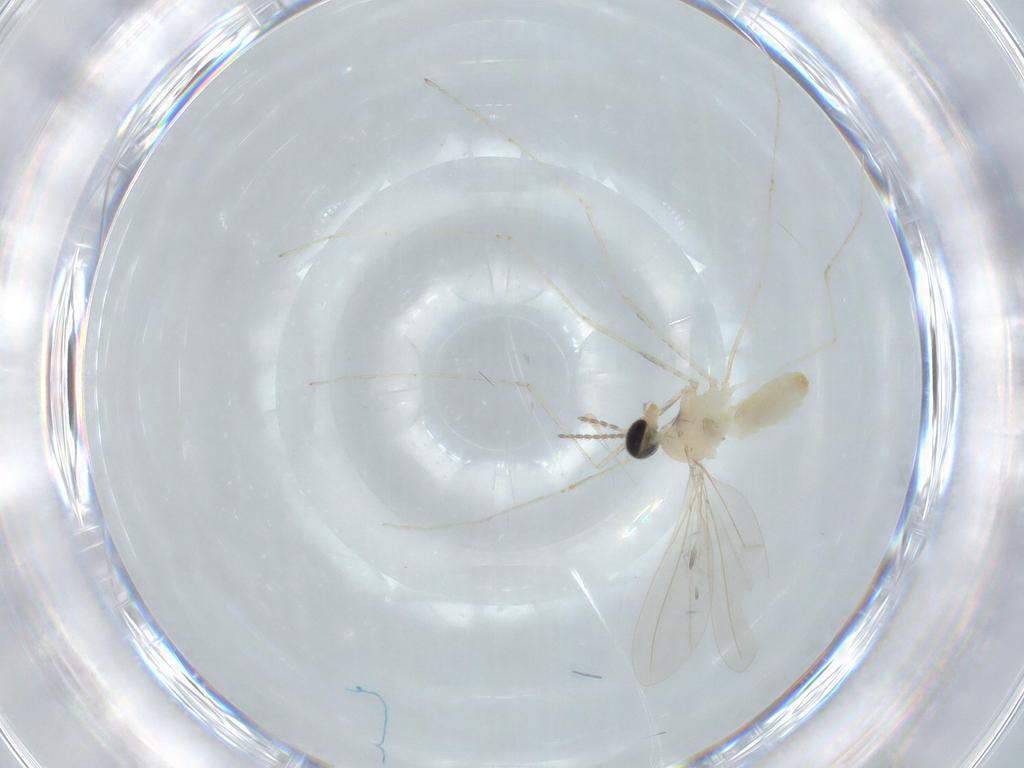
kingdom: Animalia
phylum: Arthropoda
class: Insecta
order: Diptera
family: Cecidomyiidae
